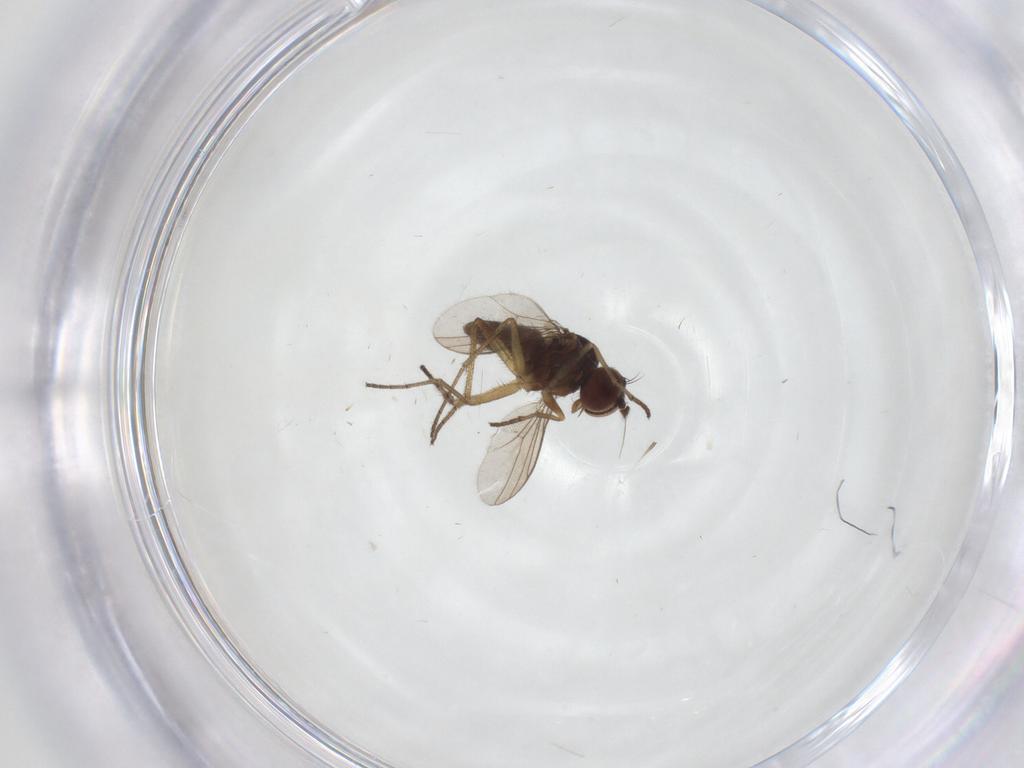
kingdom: Animalia
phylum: Arthropoda
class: Insecta
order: Diptera
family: Dolichopodidae
